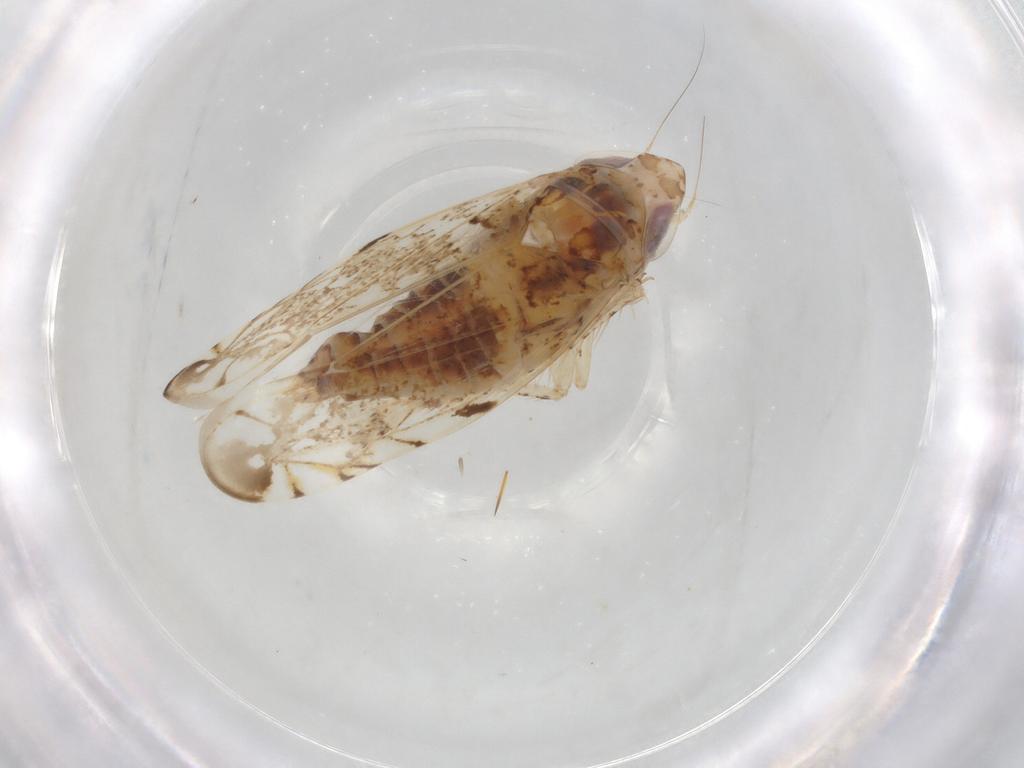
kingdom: Animalia
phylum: Arthropoda
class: Insecta
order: Hemiptera
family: Cicadellidae
